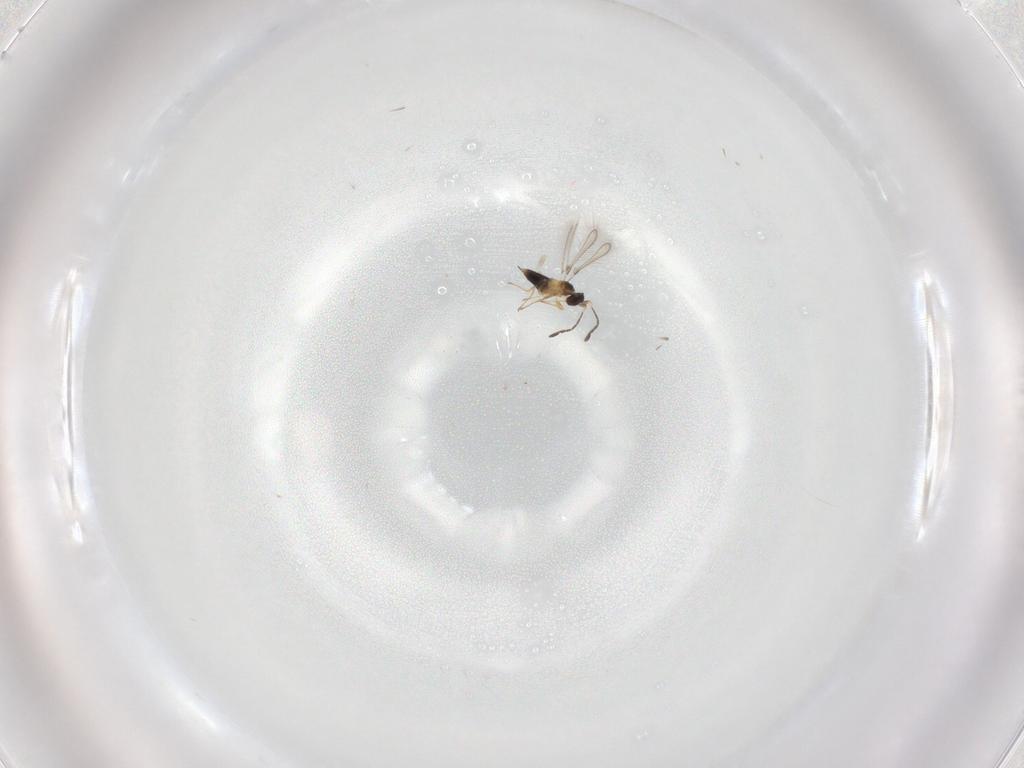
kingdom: Animalia
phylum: Arthropoda
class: Insecta
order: Hymenoptera
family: Mymaridae
